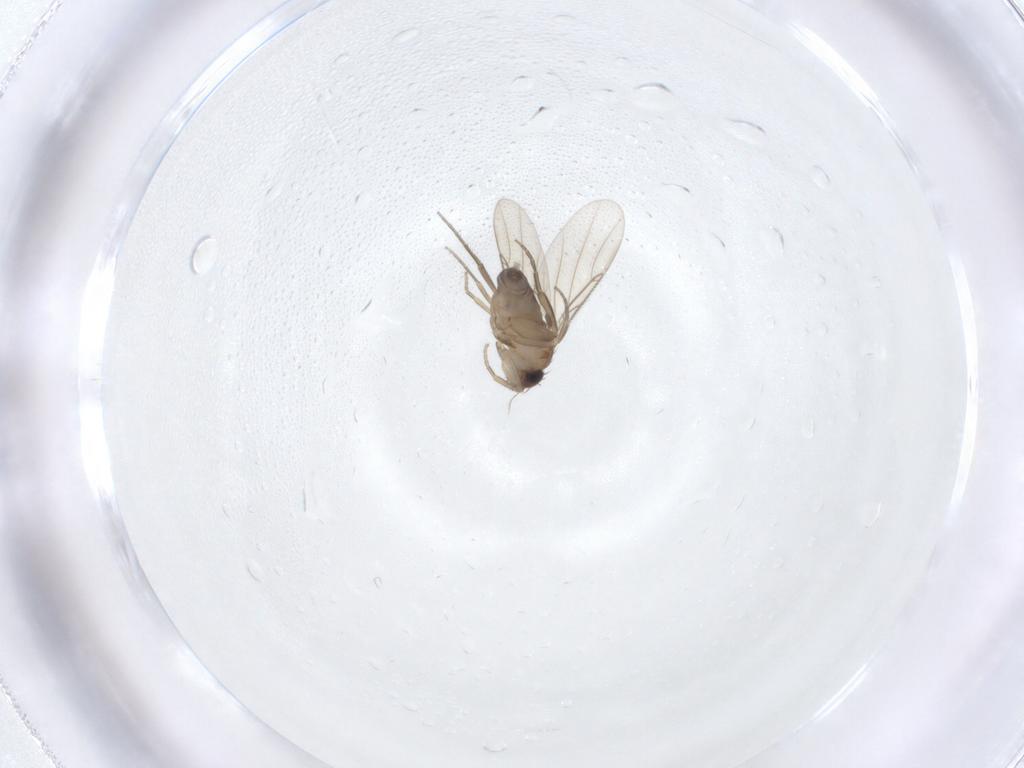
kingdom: Animalia
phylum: Arthropoda
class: Insecta
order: Diptera
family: Phoridae
